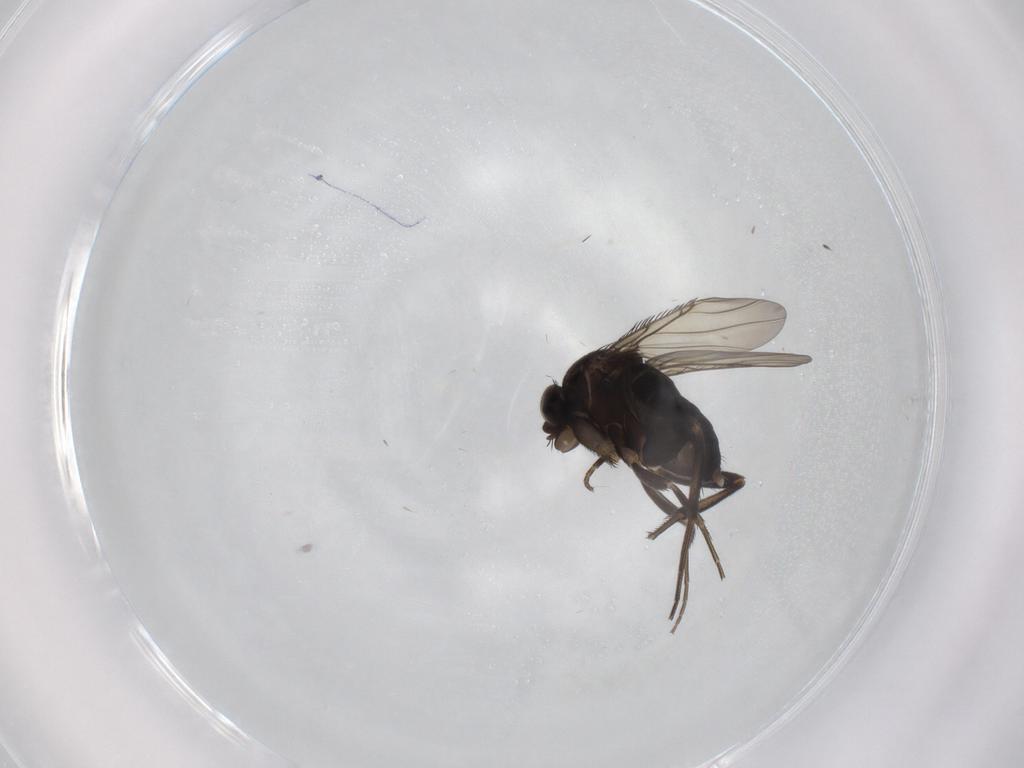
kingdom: Animalia
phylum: Arthropoda
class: Insecta
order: Diptera
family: Phoridae
